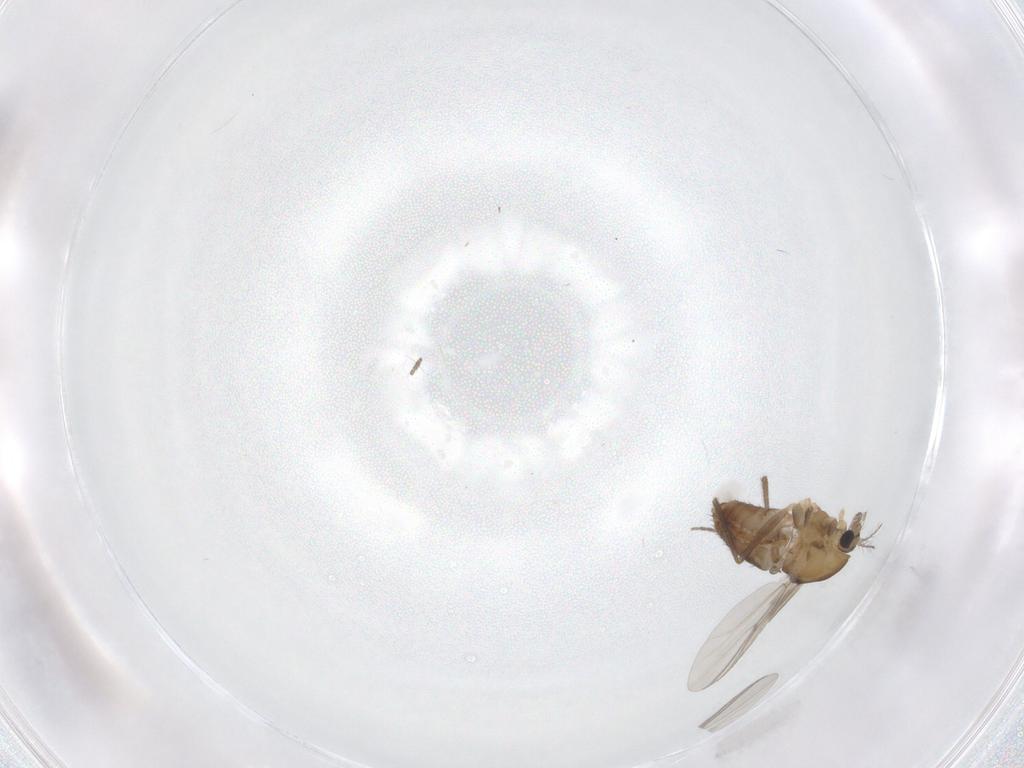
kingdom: Animalia
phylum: Arthropoda
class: Insecta
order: Diptera
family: Chironomidae
